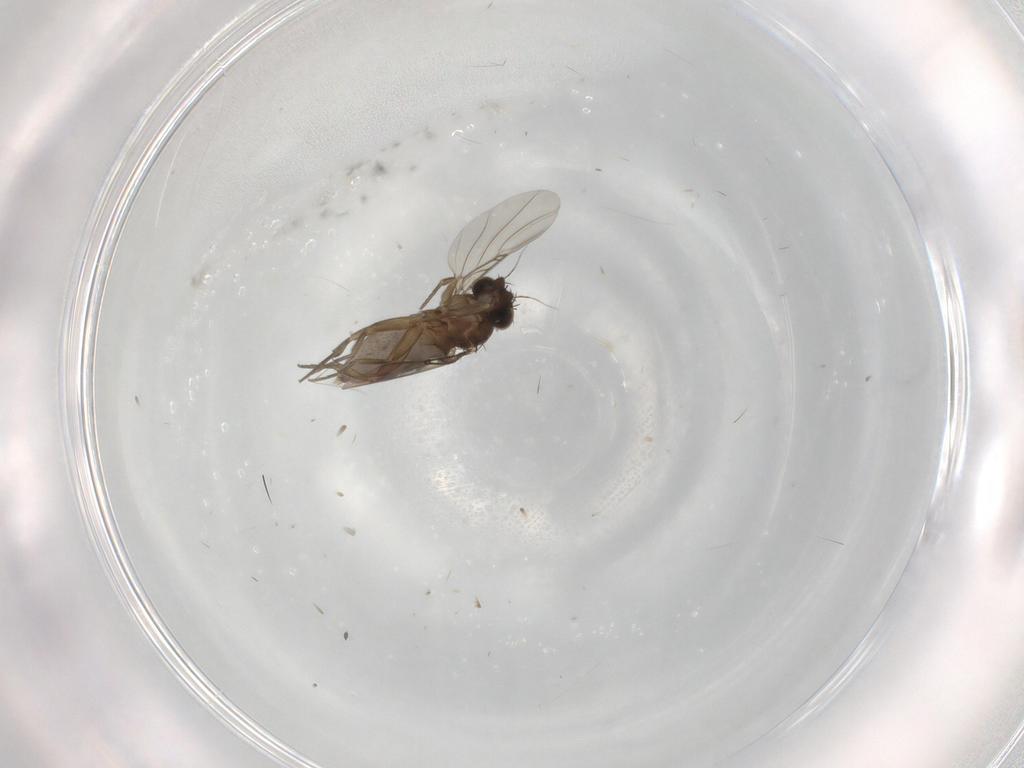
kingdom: Animalia
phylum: Arthropoda
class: Insecta
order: Diptera
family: Phoridae
